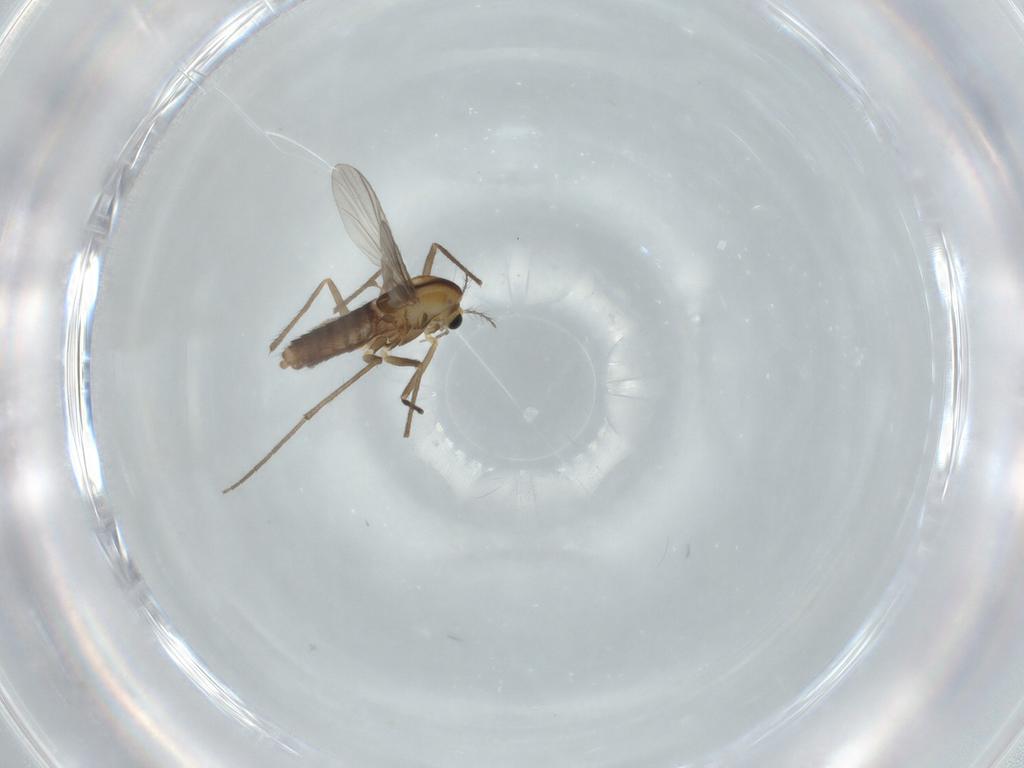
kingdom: Animalia
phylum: Arthropoda
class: Insecta
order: Diptera
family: Chironomidae
